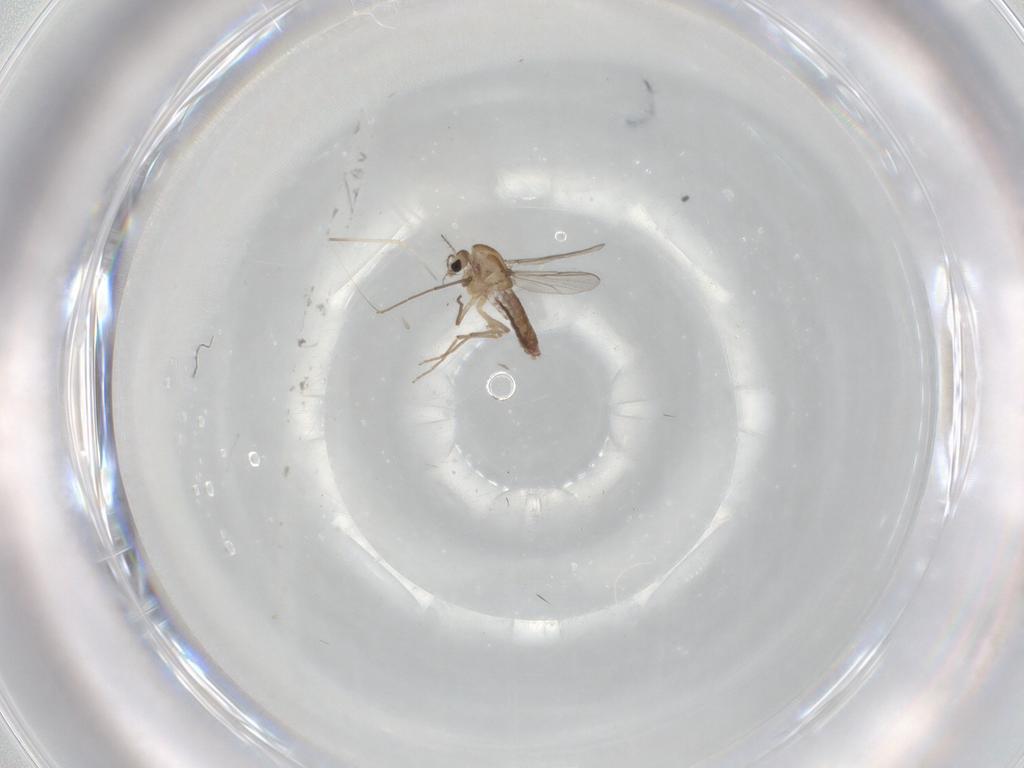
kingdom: Animalia
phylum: Arthropoda
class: Insecta
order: Diptera
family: Chironomidae
